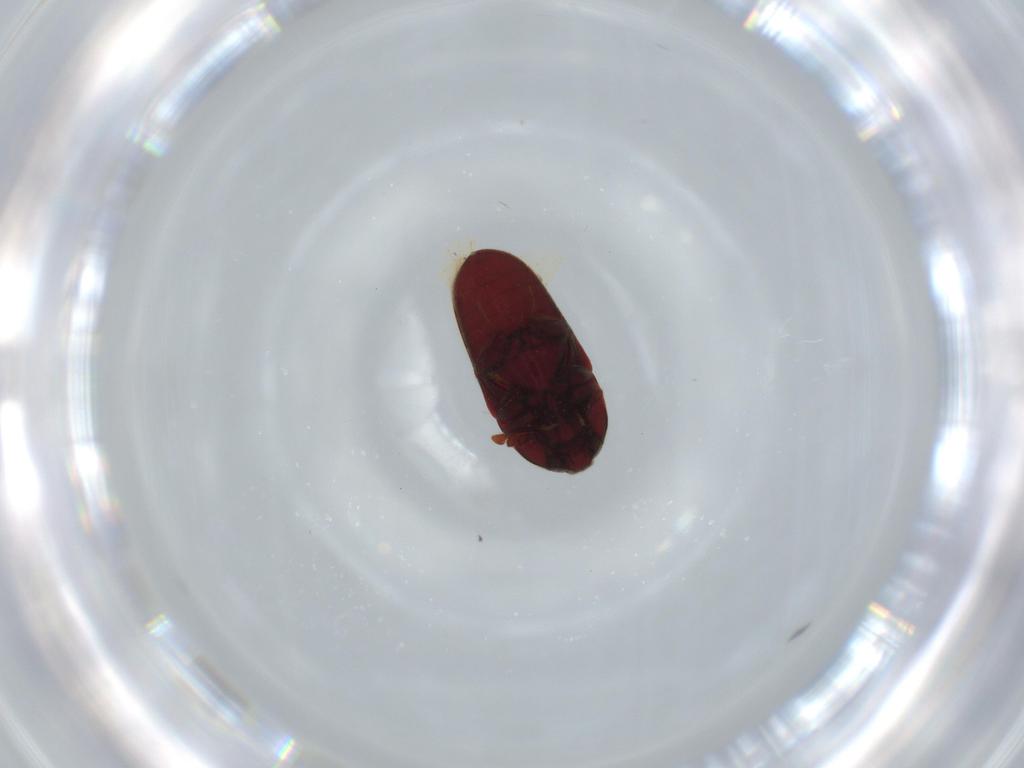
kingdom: Animalia
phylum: Arthropoda
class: Insecta
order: Coleoptera
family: Throscidae
